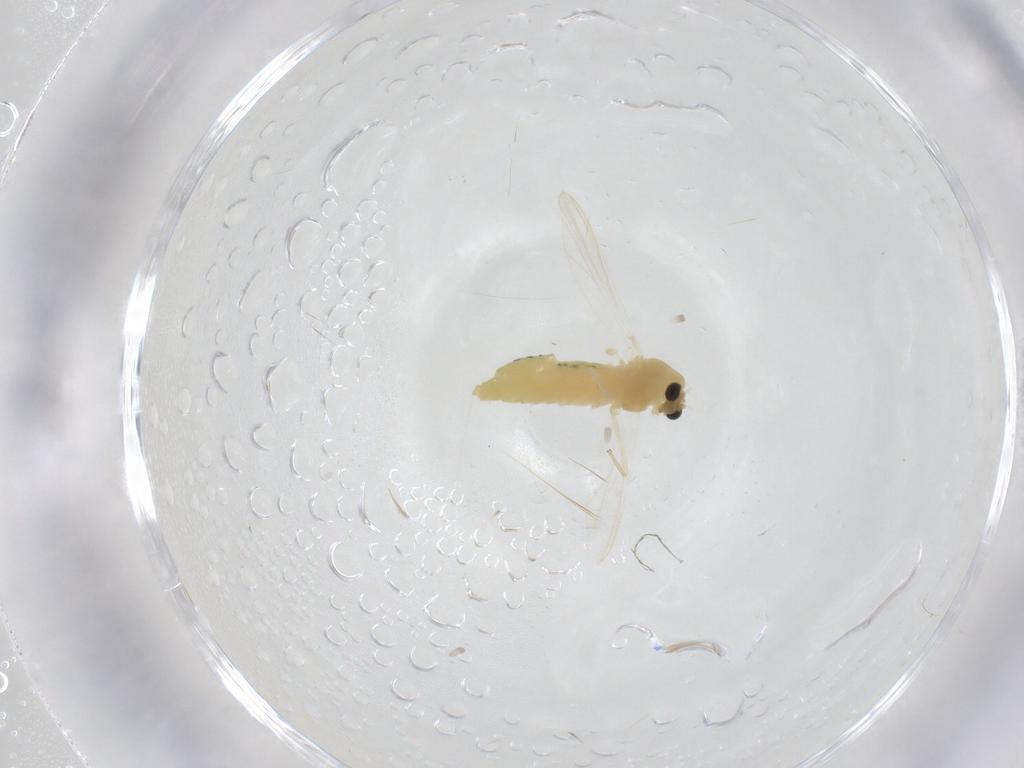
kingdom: Animalia
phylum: Arthropoda
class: Insecta
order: Diptera
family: Chironomidae
